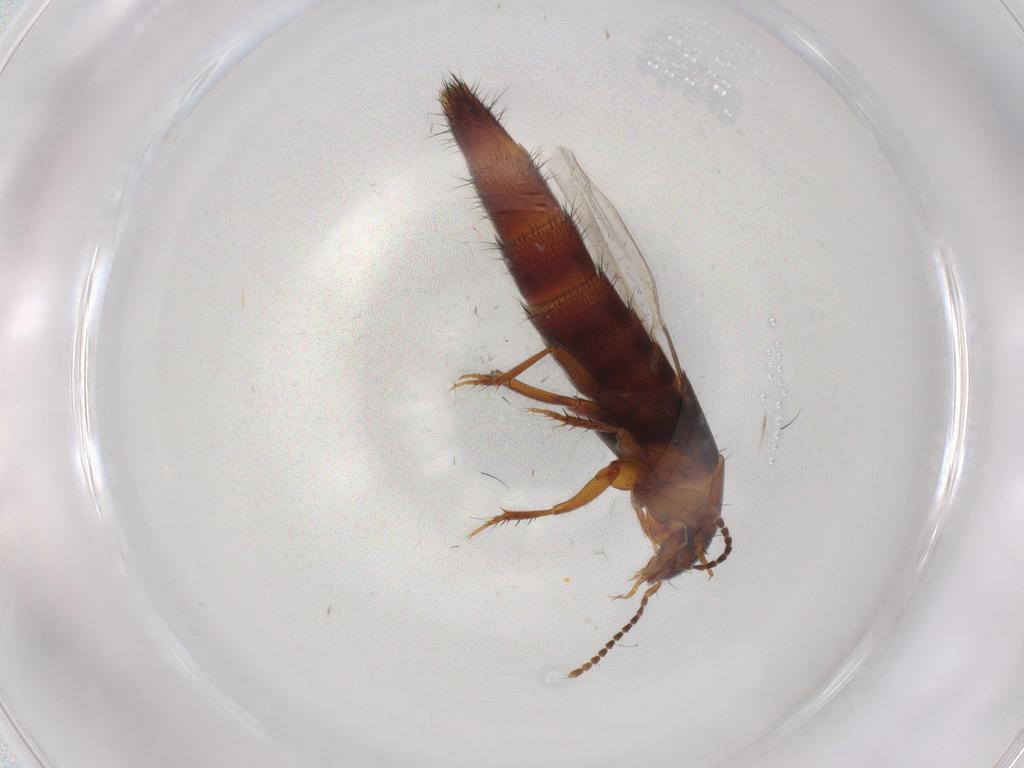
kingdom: Animalia
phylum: Arthropoda
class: Insecta
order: Coleoptera
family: Staphylinidae
